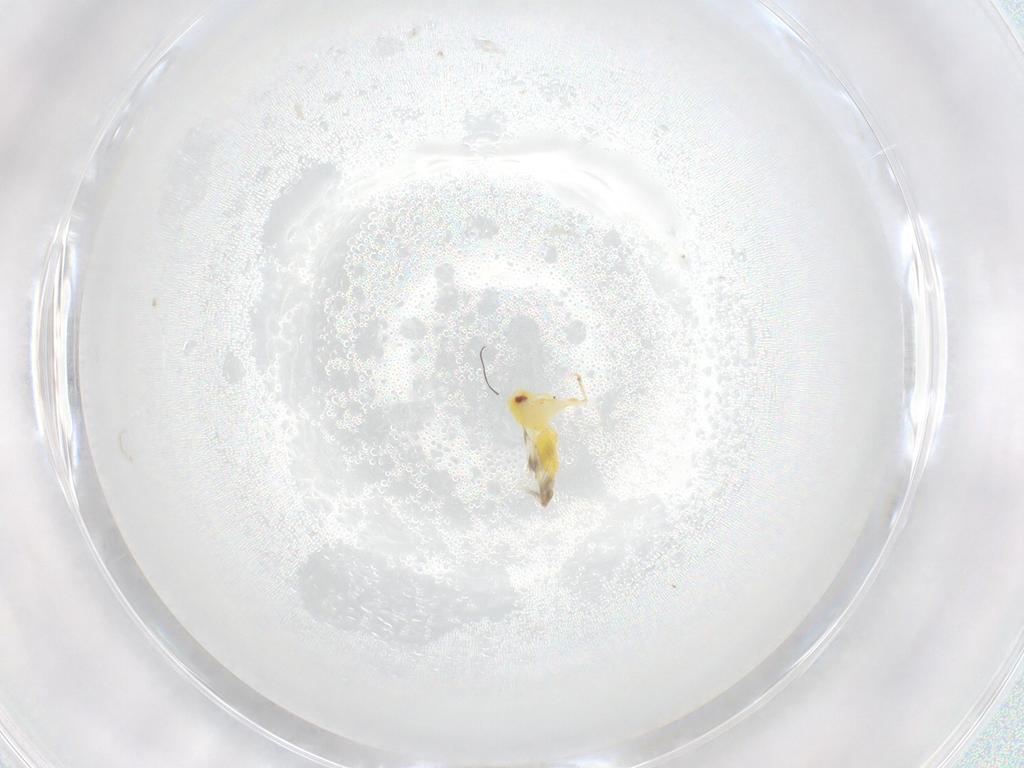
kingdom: Animalia
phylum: Arthropoda
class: Insecta
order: Hemiptera
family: Aleyrodidae
